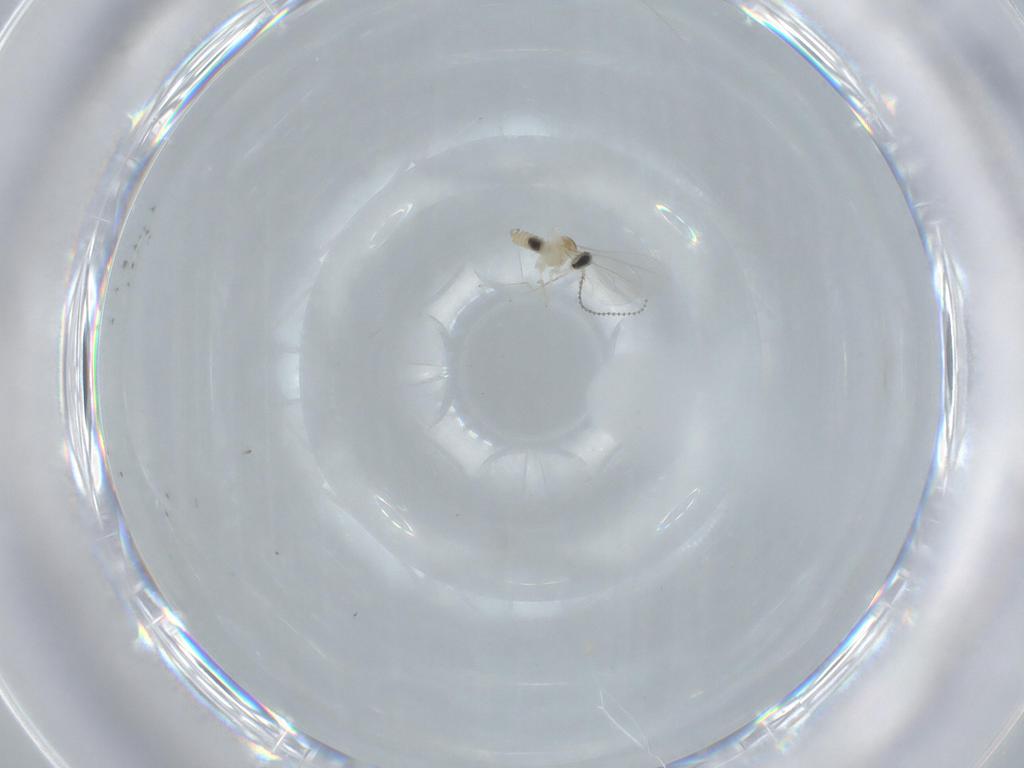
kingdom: Animalia
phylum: Arthropoda
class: Insecta
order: Diptera
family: Cecidomyiidae
